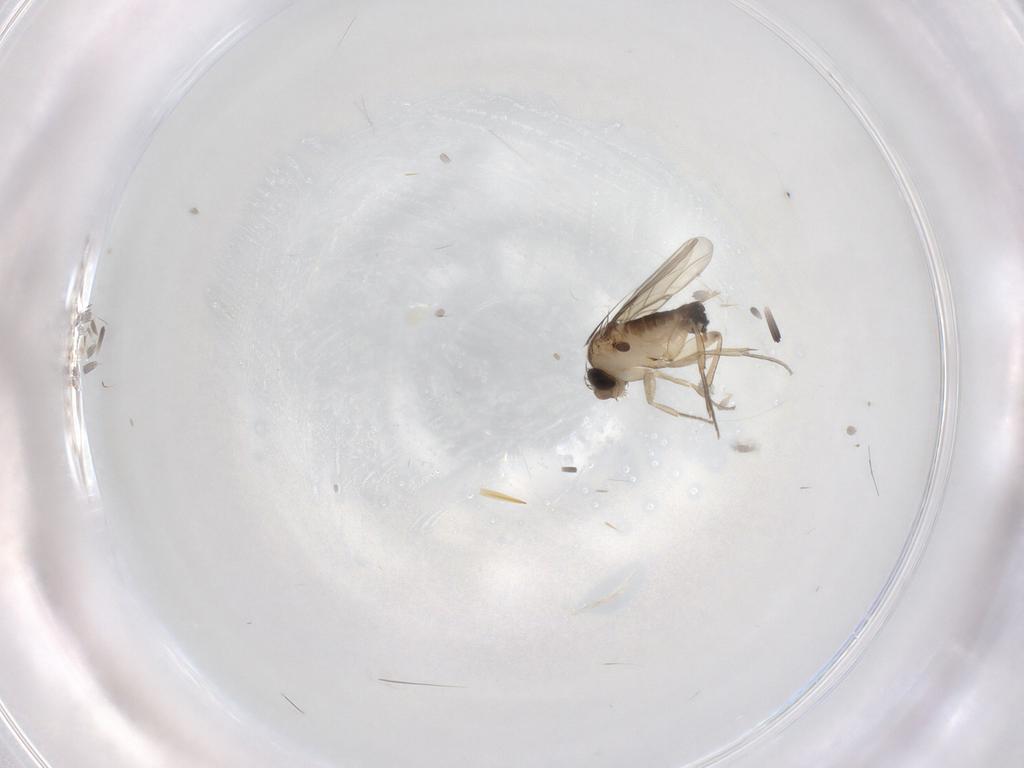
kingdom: Animalia
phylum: Arthropoda
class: Insecta
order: Diptera
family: Phoridae
